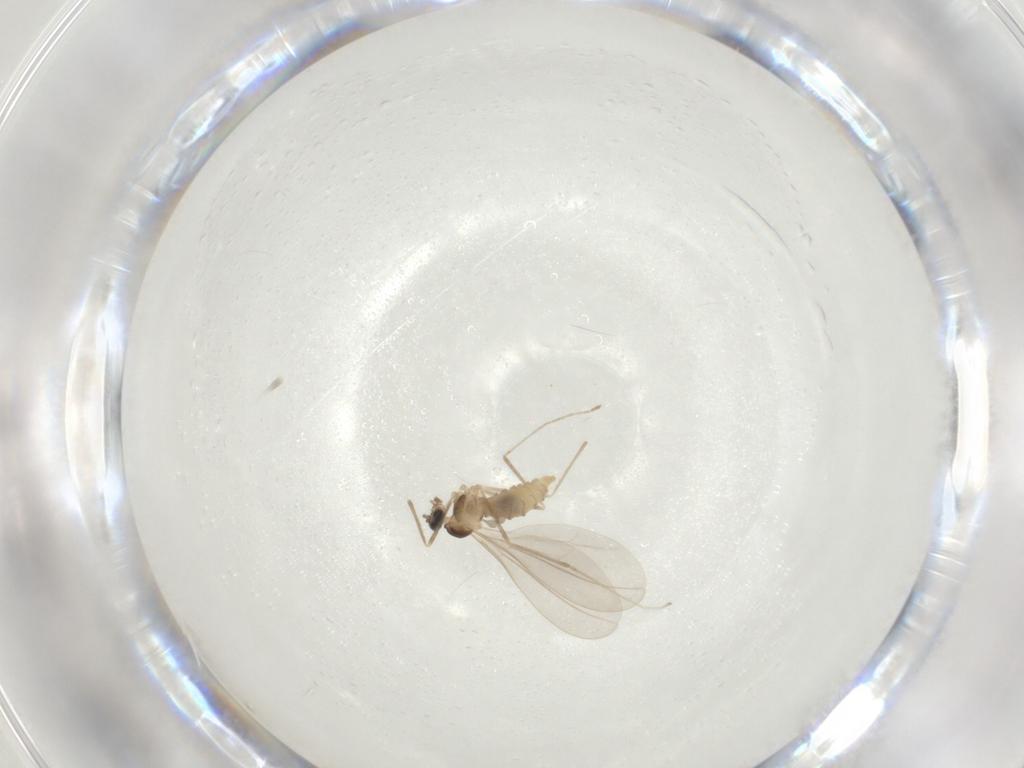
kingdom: Animalia
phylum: Arthropoda
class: Insecta
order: Diptera
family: Cecidomyiidae
